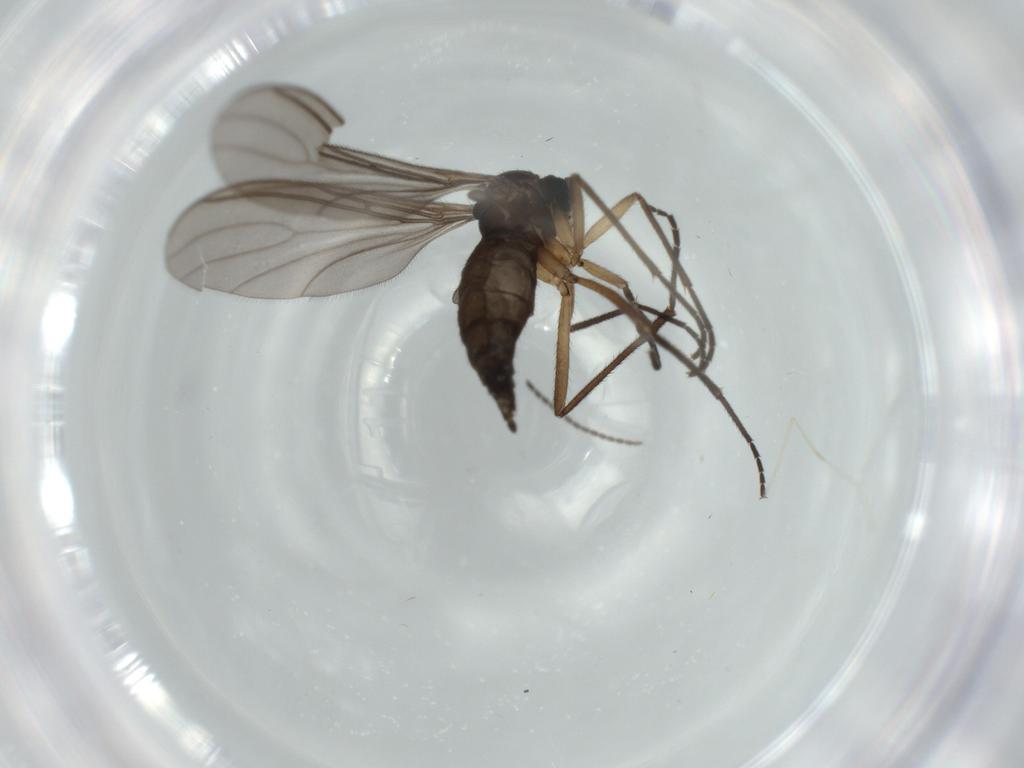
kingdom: Animalia
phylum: Arthropoda
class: Insecta
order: Diptera
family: Cecidomyiidae
